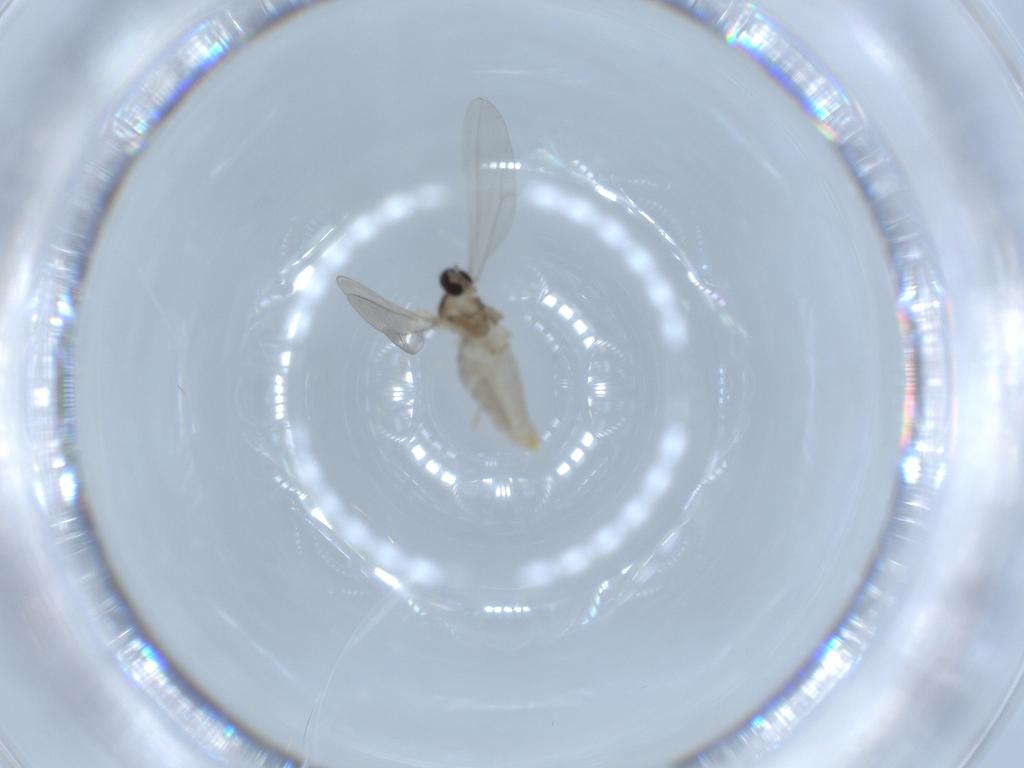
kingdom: Animalia
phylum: Arthropoda
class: Insecta
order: Diptera
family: Cecidomyiidae
